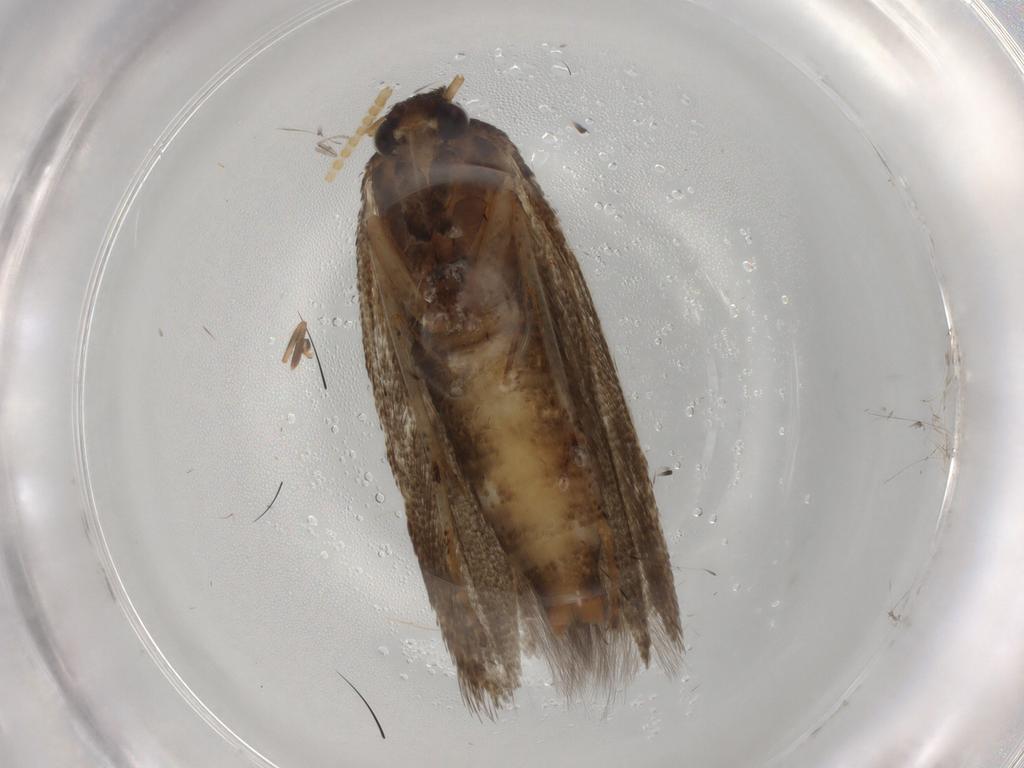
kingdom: Animalia
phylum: Arthropoda
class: Insecta
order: Lepidoptera
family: Blastobasidae
